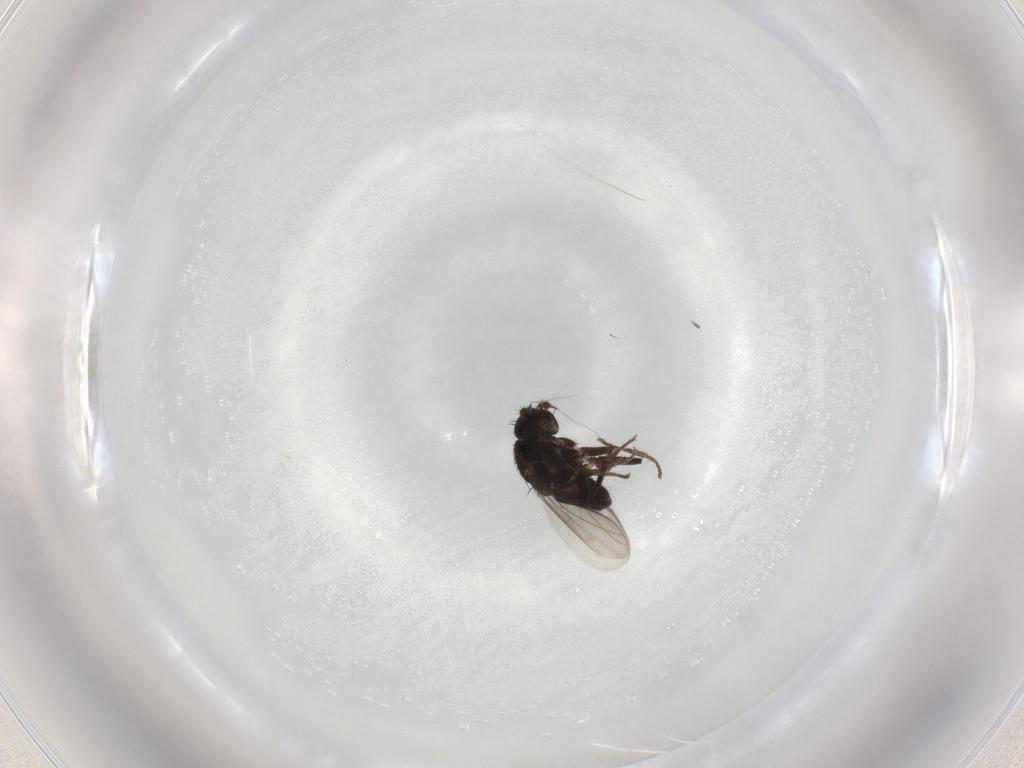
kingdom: Animalia
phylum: Arthropoda
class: Insecta
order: Diptera
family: Sphaeroceridae
